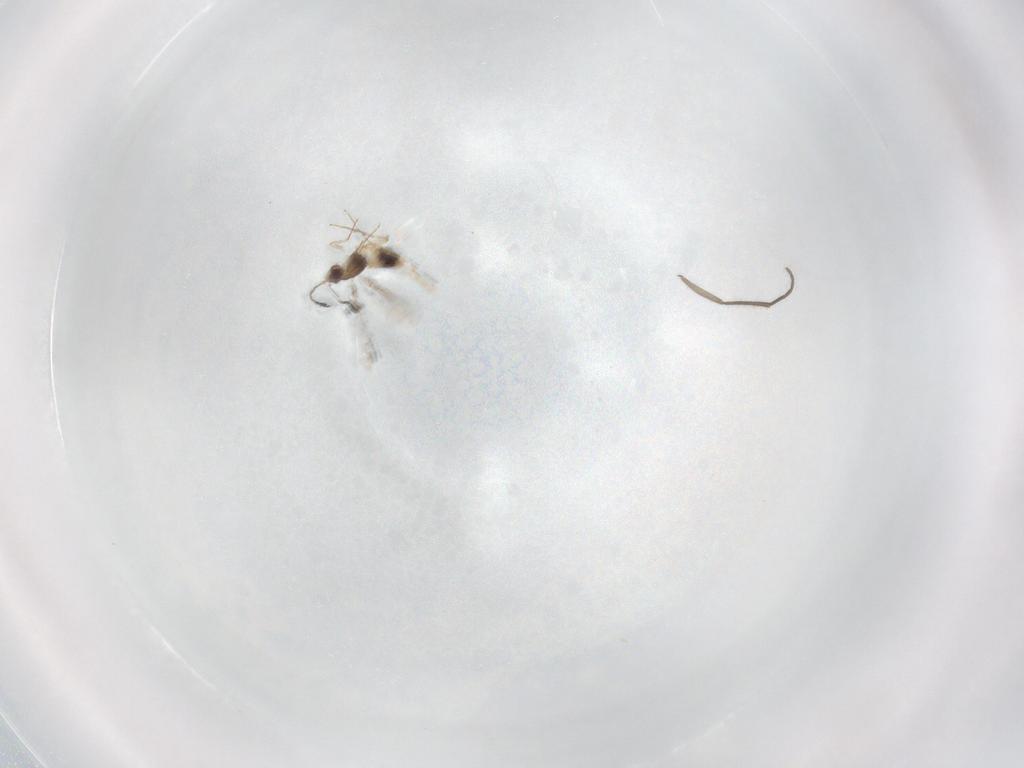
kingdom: Animalia
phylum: Arthropoda
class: Insecta
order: Hymenoptera
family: Mymaridae
